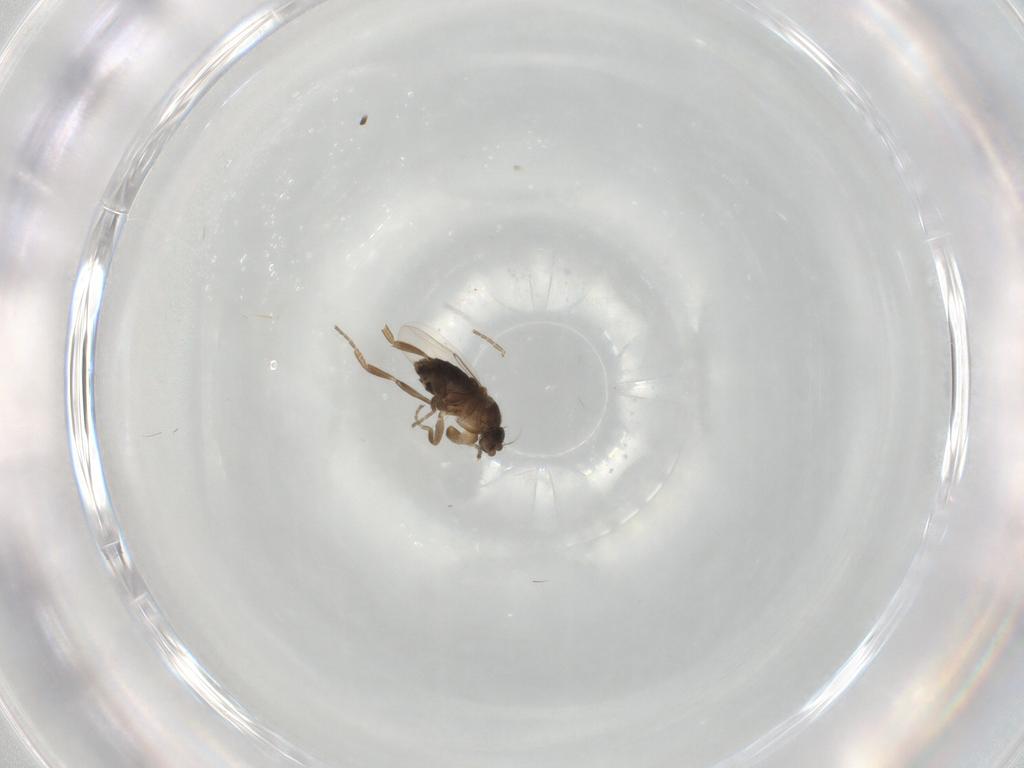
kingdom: Animalia
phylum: Arthropoda
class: Insecta
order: Diptera
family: Phoridae
